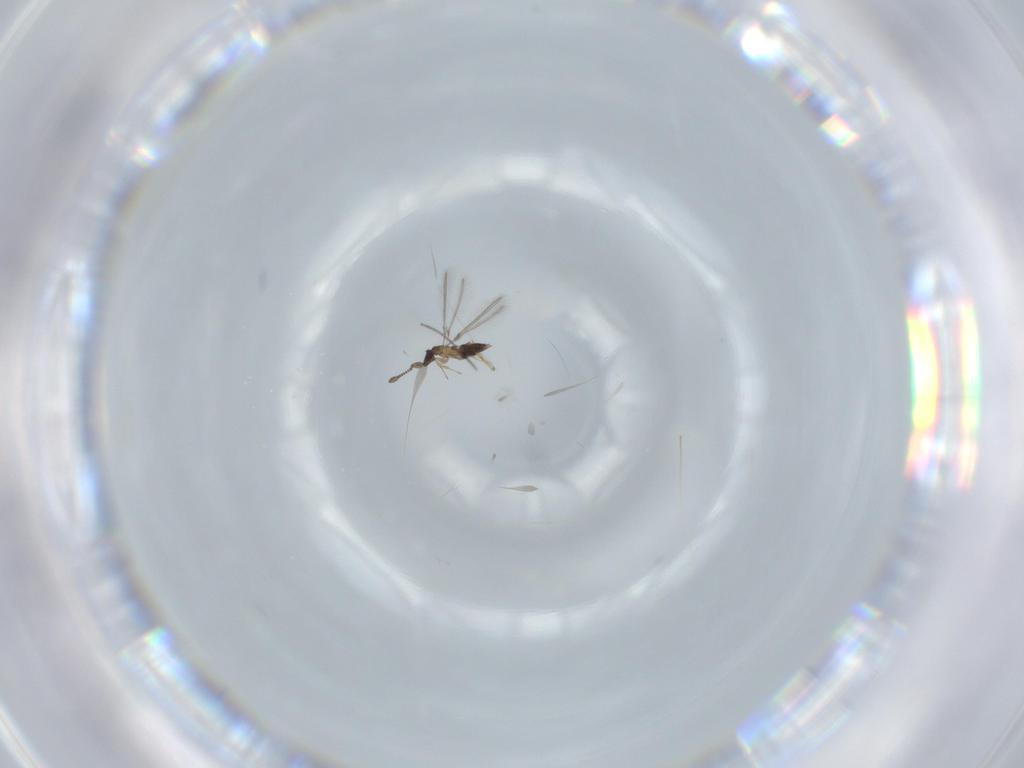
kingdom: Animalia
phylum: Arthropoda
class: Insecta
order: Hymenoptera
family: Mymaridae
